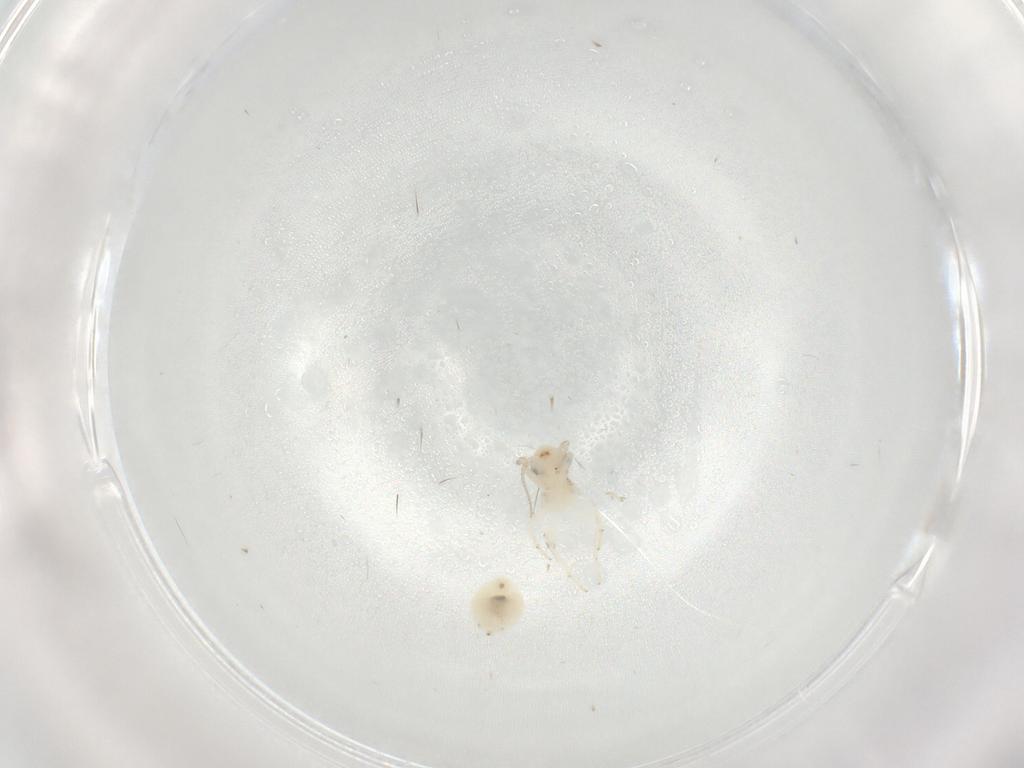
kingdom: Animalia
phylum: Arthropoda
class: Insecta
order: Psocodea
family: Lepidopsocidae
